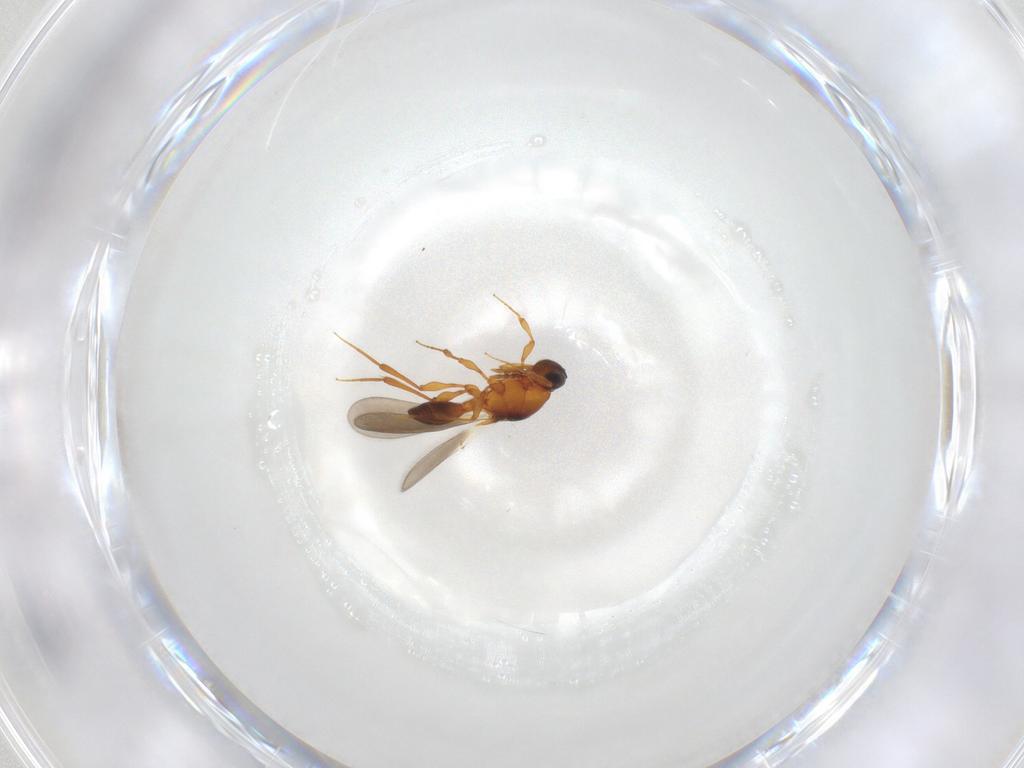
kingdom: Animalia
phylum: Arthropoda
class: Insecta
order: Hymenoptera
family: Platygastridae
